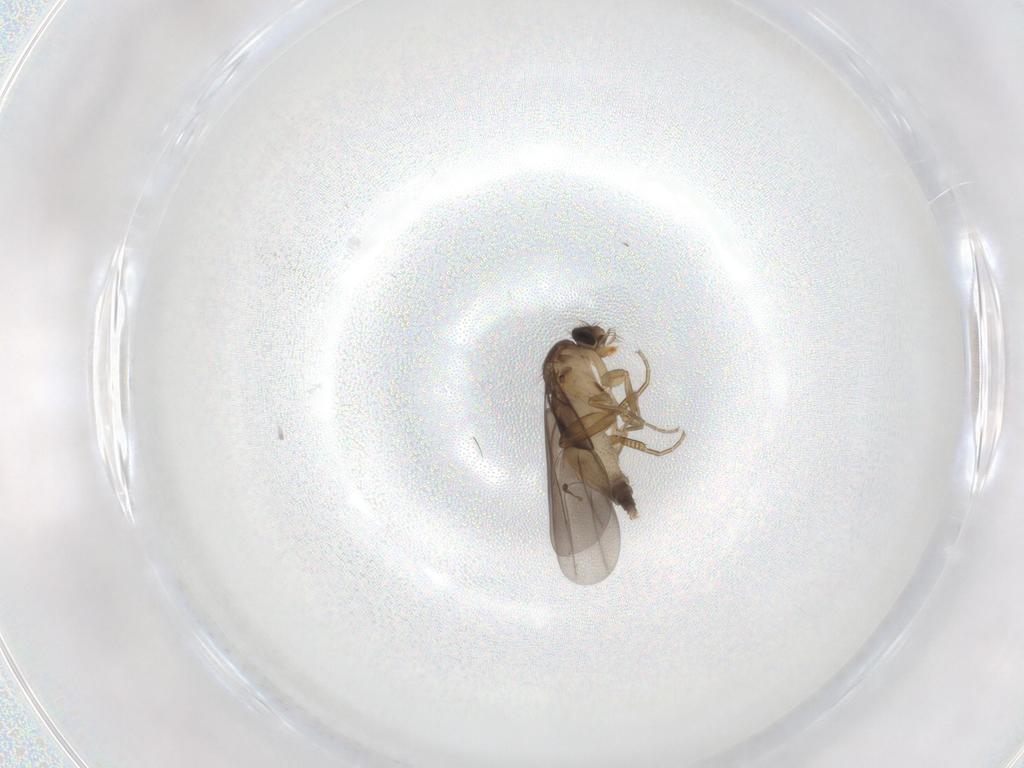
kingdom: Animalia
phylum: Arthropoda
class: Insecta
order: Diptera
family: Phoridae
